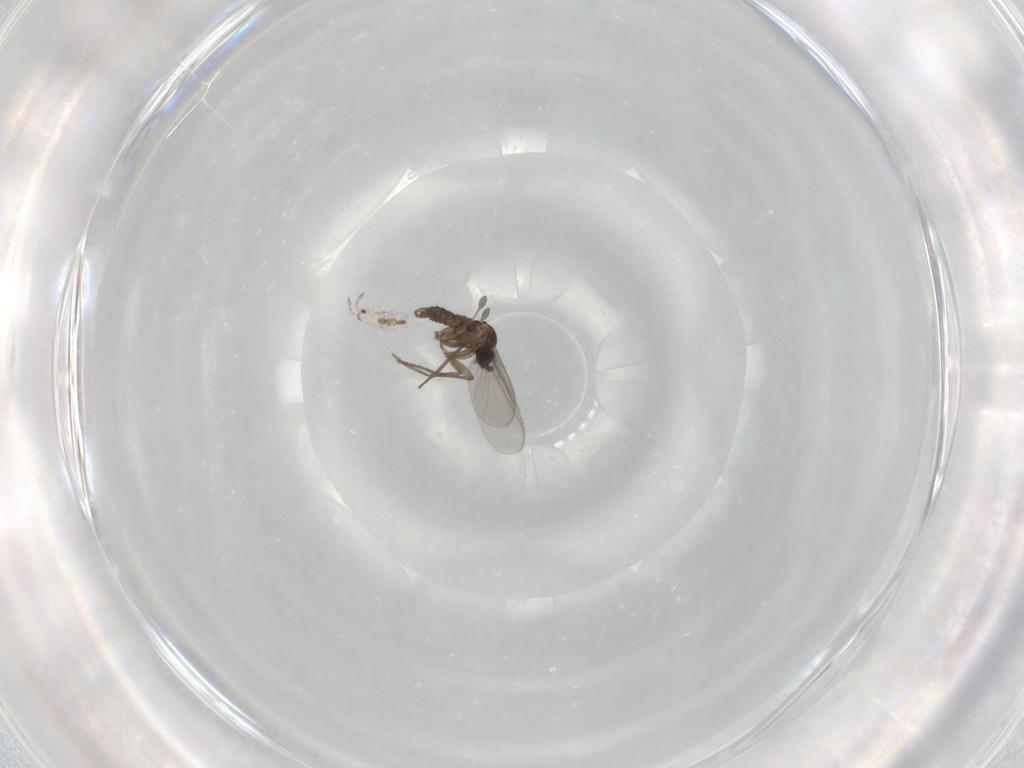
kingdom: Animalia
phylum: Arthropoda
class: Insecta
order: Diptera
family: Sciaridae
